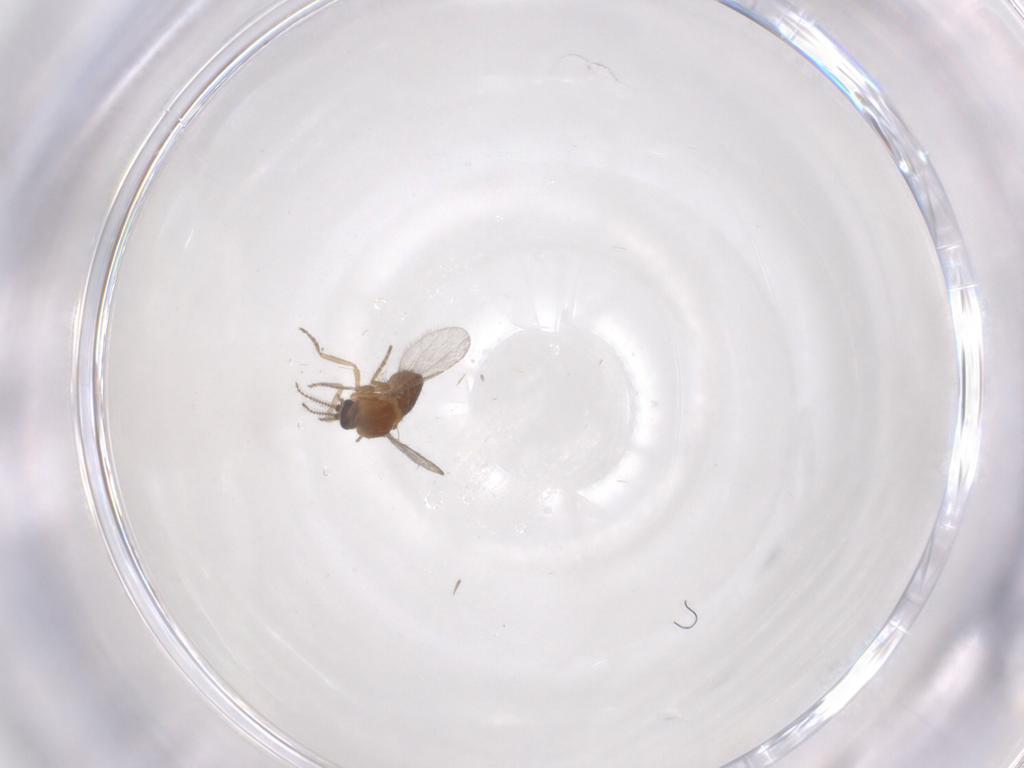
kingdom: Animalia
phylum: Arthropoda
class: Insecta
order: Diptera
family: Ceratopogonidae
